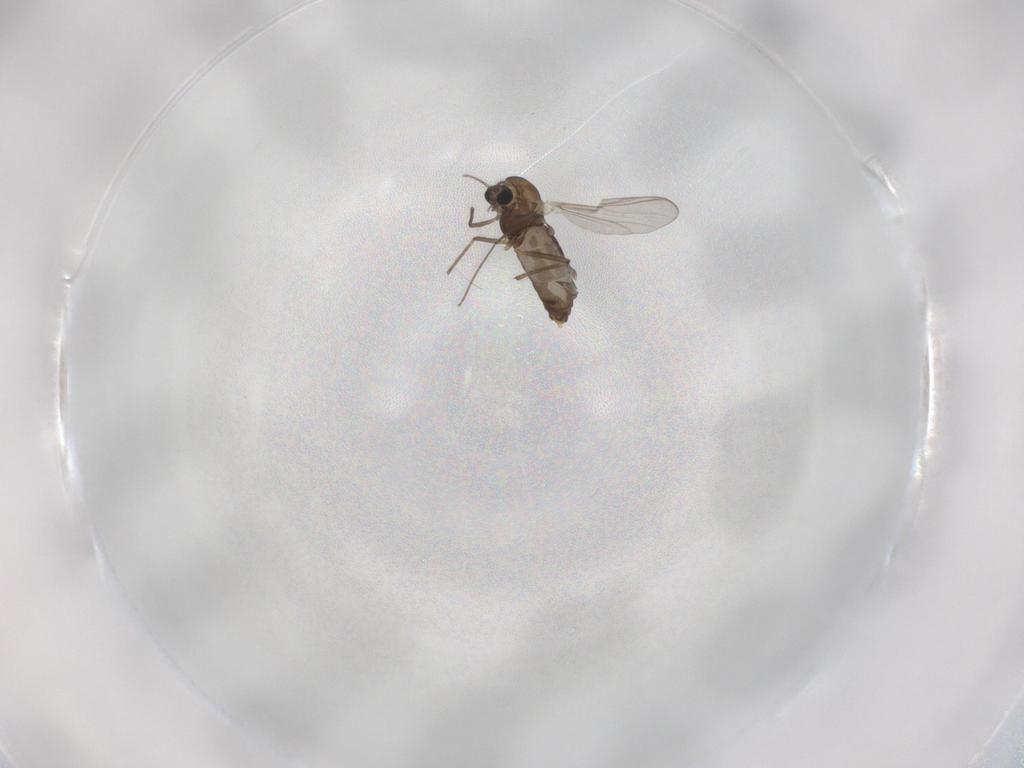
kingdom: Animalia
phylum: Arthropoda
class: Insecta
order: Diptera
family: Chironomidae
